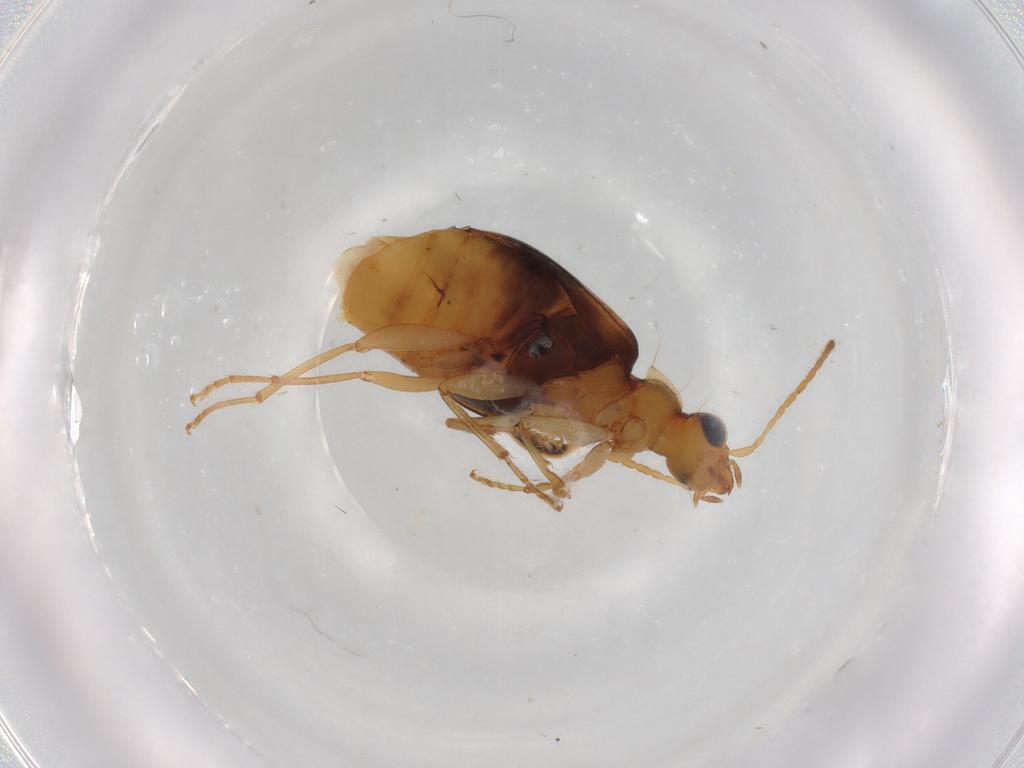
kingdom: Animalia
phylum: Arthropoda
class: Insecta
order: Coleoptera
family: Carabidae
